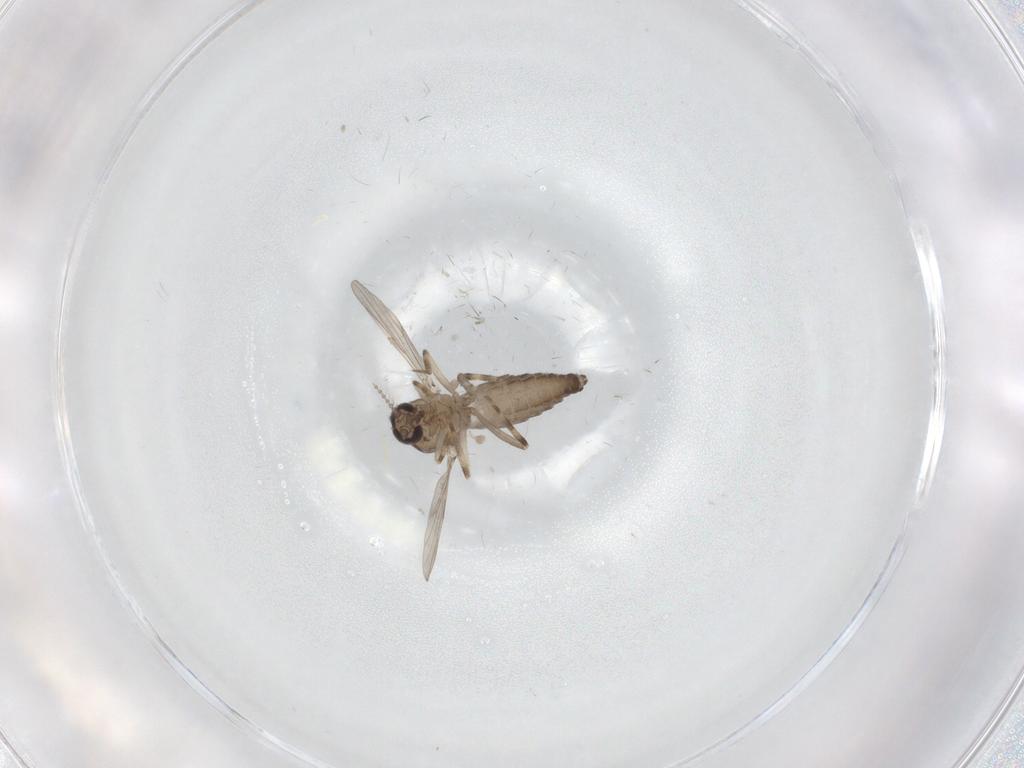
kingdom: Animalia
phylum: Arthropoda
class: Insecta
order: Diptera
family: Ceratopogonidae
